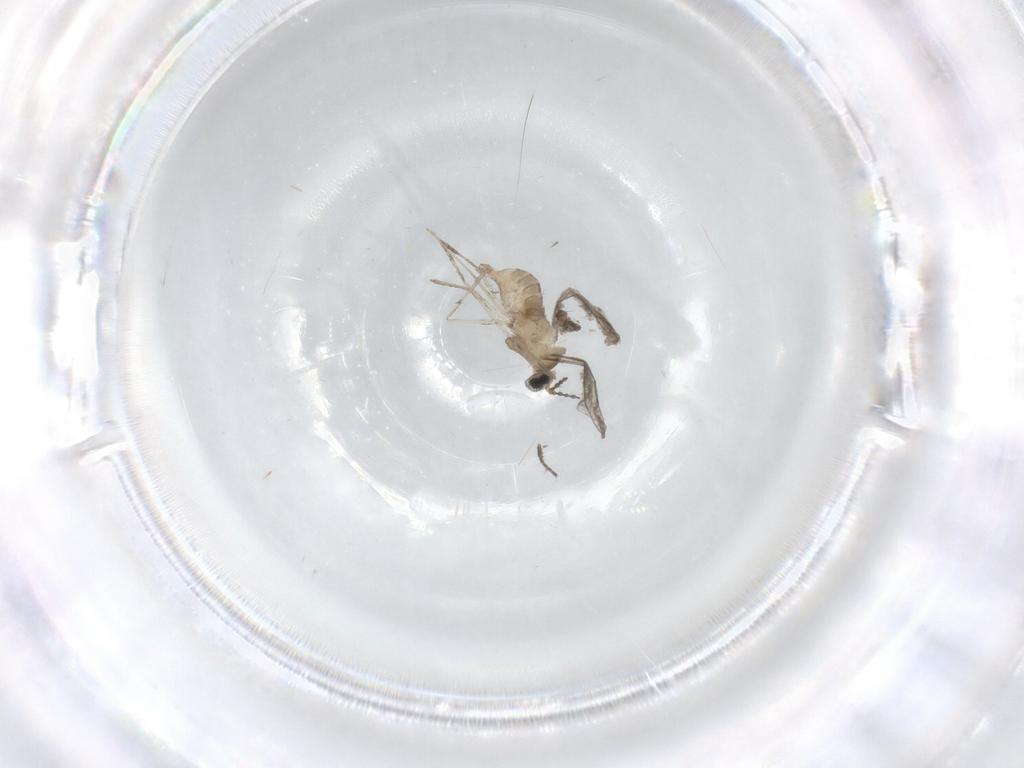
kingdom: Animalia
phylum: Arthropoda
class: Insecta
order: Diptera
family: Cecidomyiidae
